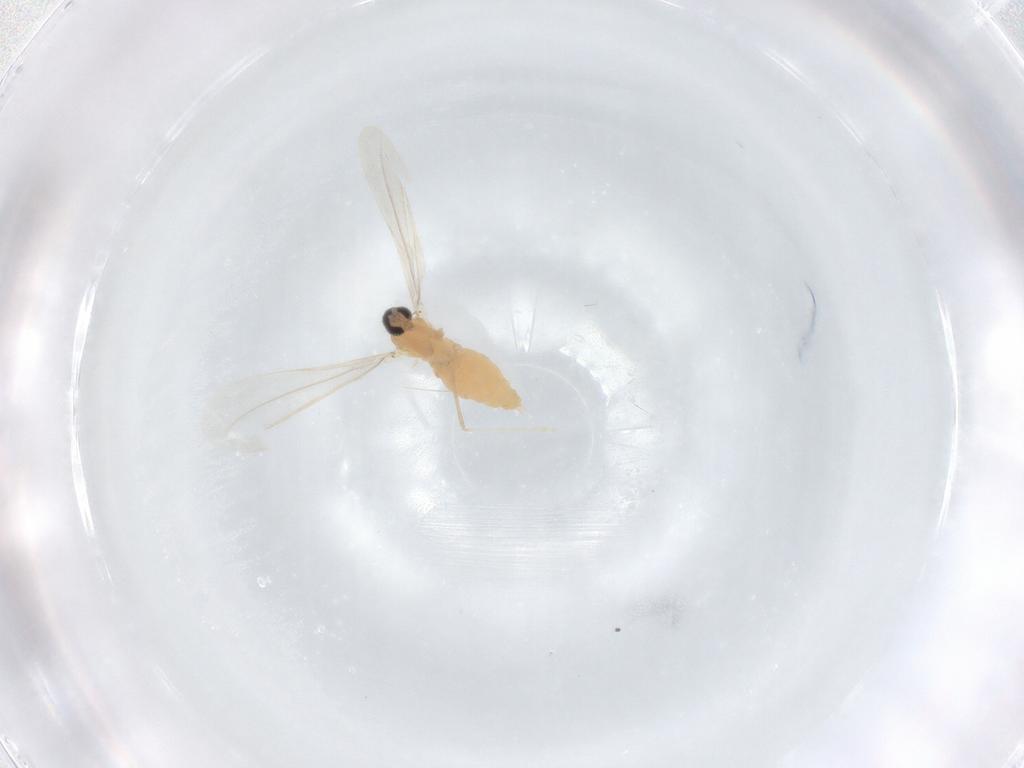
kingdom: Animalia
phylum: Arthropoda
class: Insecta
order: Diptera
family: Cecidomyiidae
